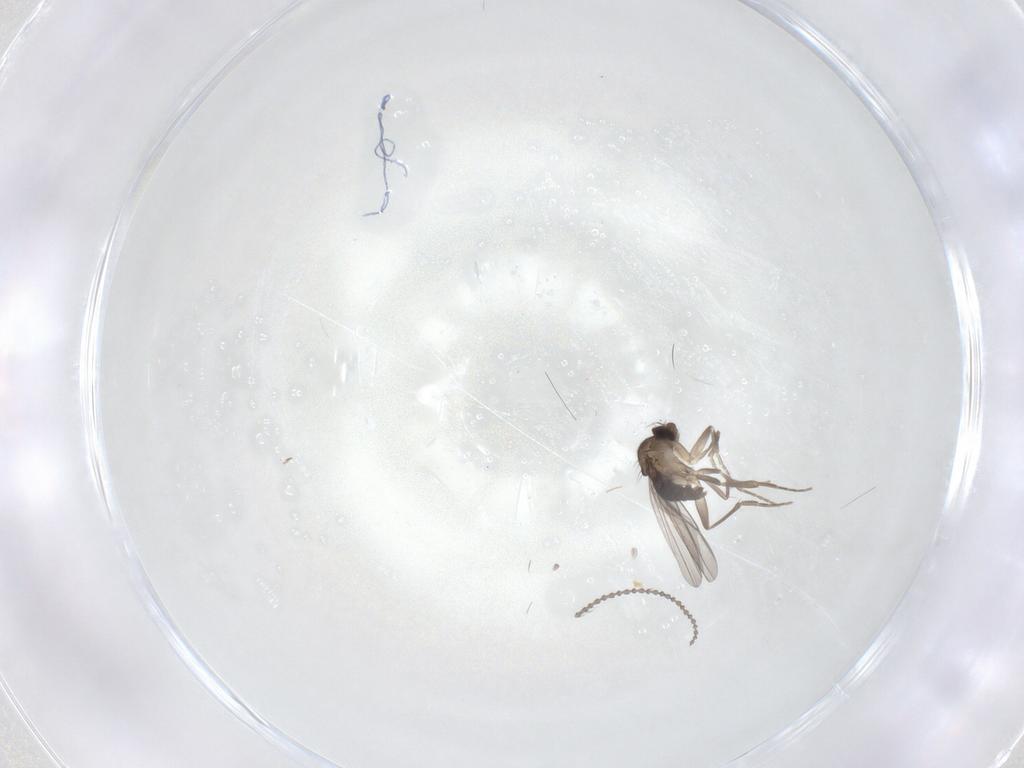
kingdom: Animalia
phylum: Arthropoda
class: Insecta
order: Diptera
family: Phoridae
